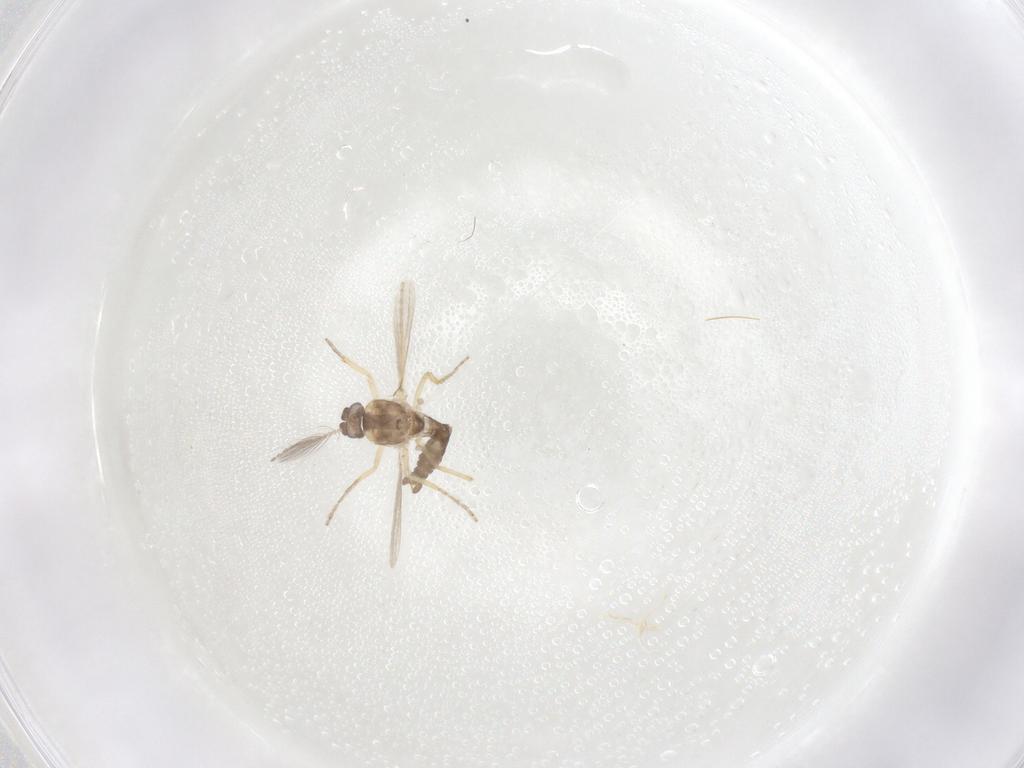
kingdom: Animalia
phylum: Arthropoda
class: Insecta
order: Diptera
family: Ceratopogonidae
